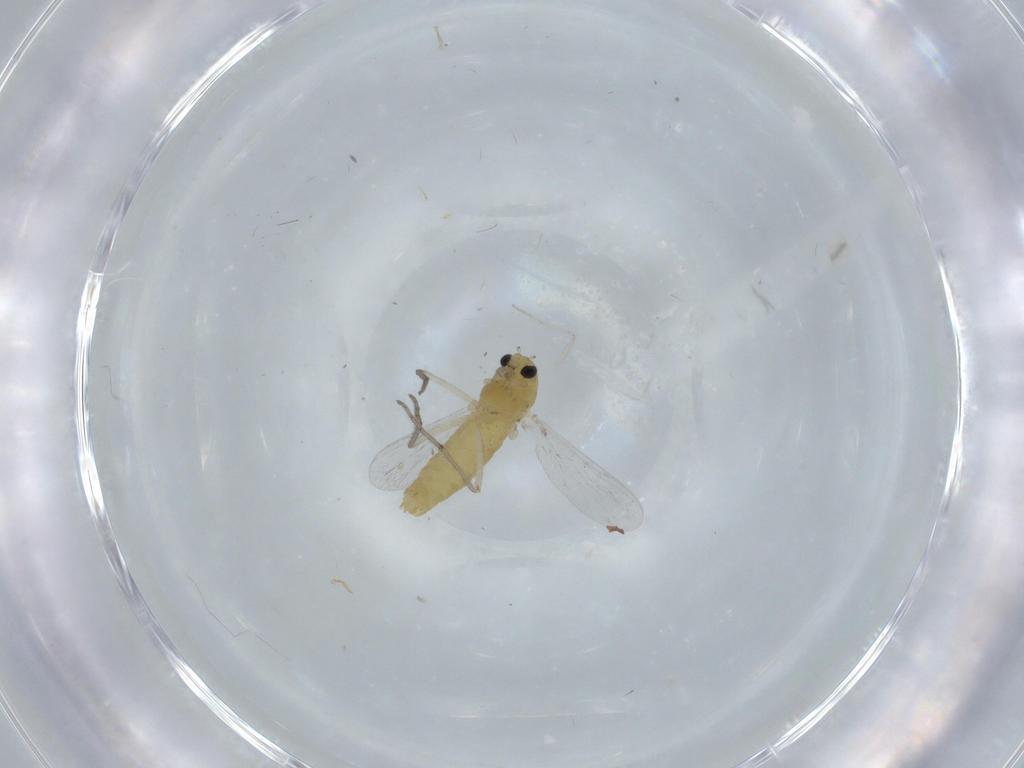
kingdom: Animalia
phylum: Arthropoda
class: Insecta
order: Diptera
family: Chironomidae
